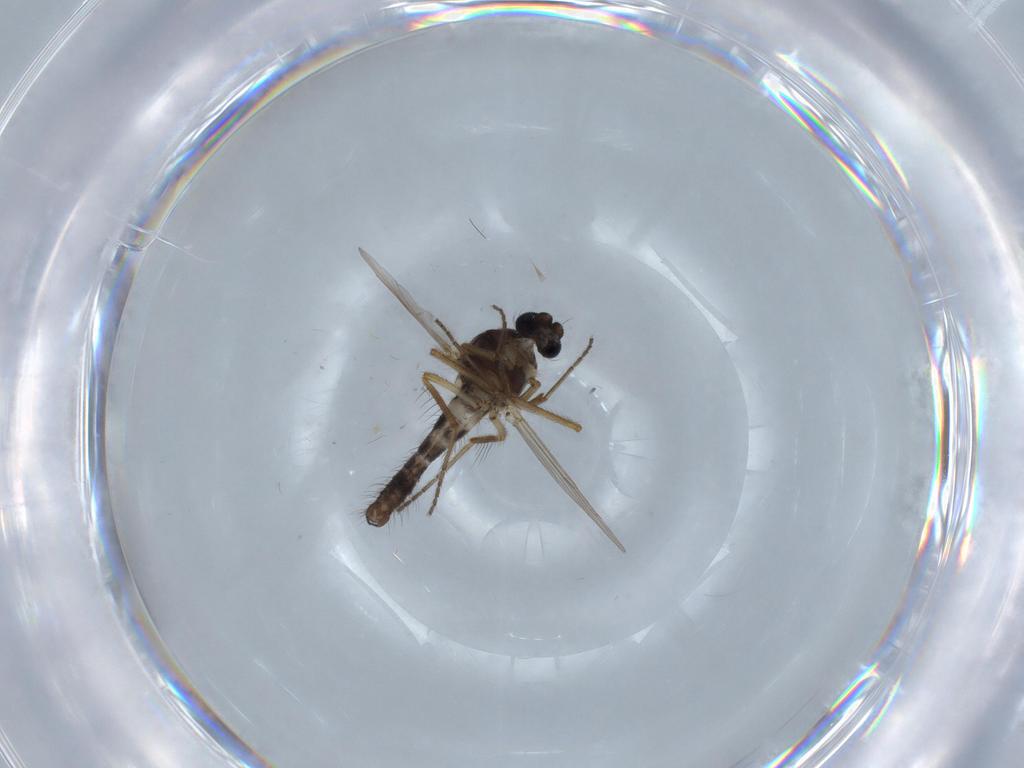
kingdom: Animalia
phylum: Arthropoda
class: Insecta
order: Diptera
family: Ceratopogonidae
